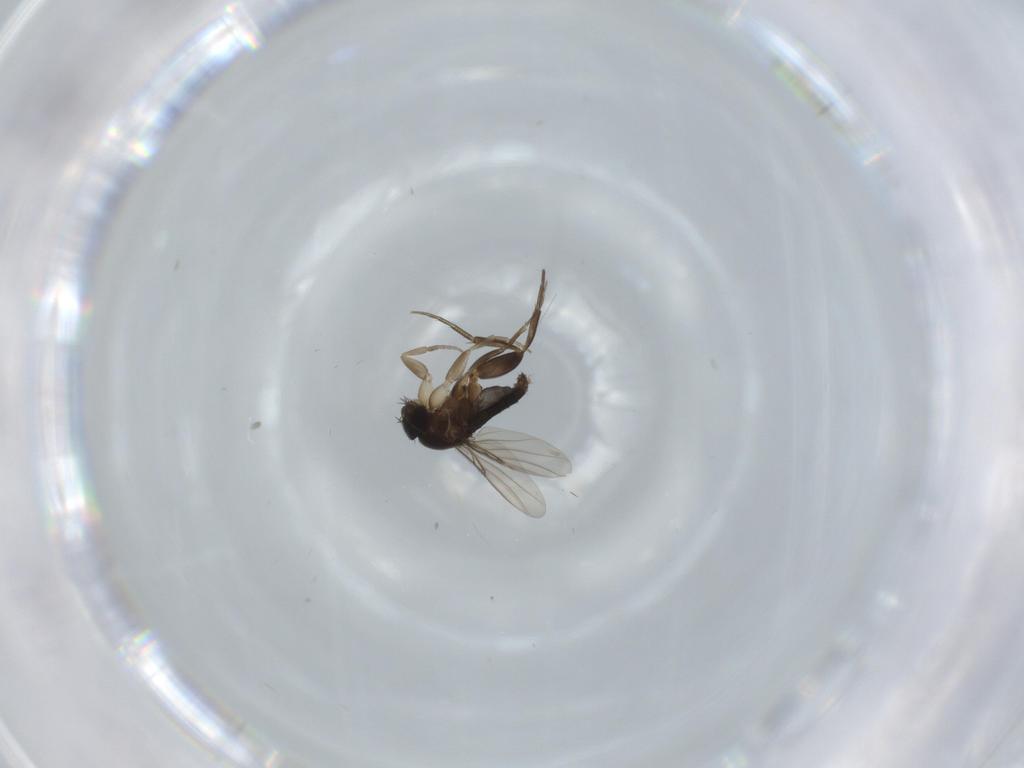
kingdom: Animalia
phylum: Arthropoda
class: Insecta
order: Diptera
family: Phoridae
